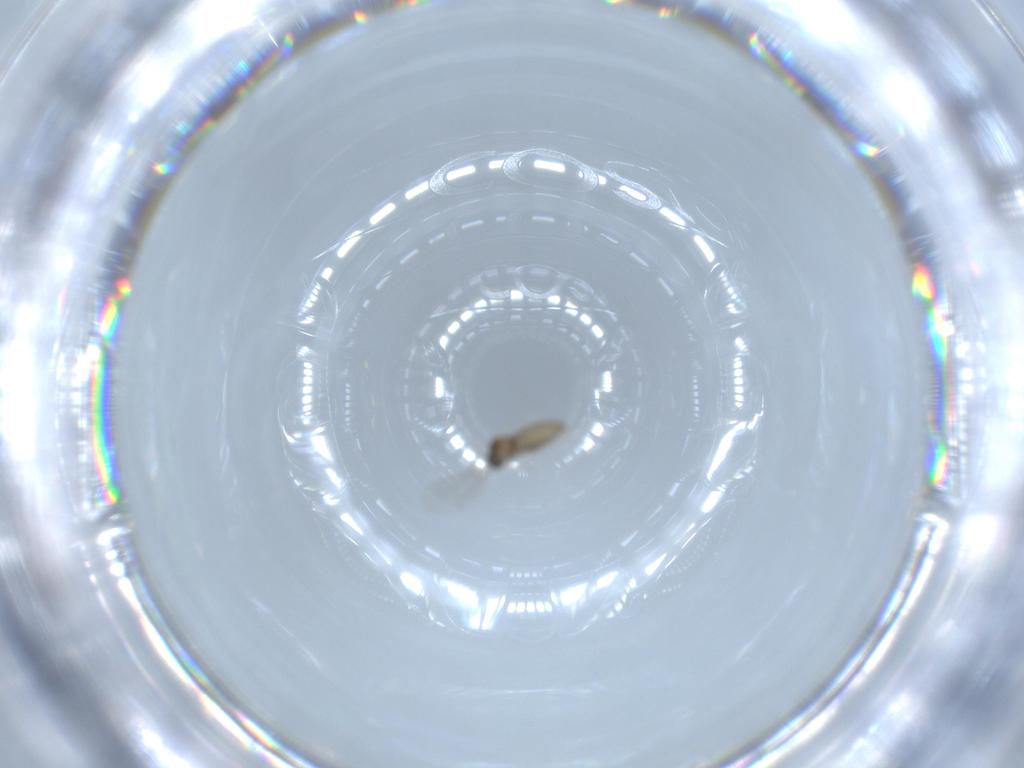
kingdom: Animalia
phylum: Arthropoda
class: Insecta
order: Diptera
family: Cecidomyiidae
